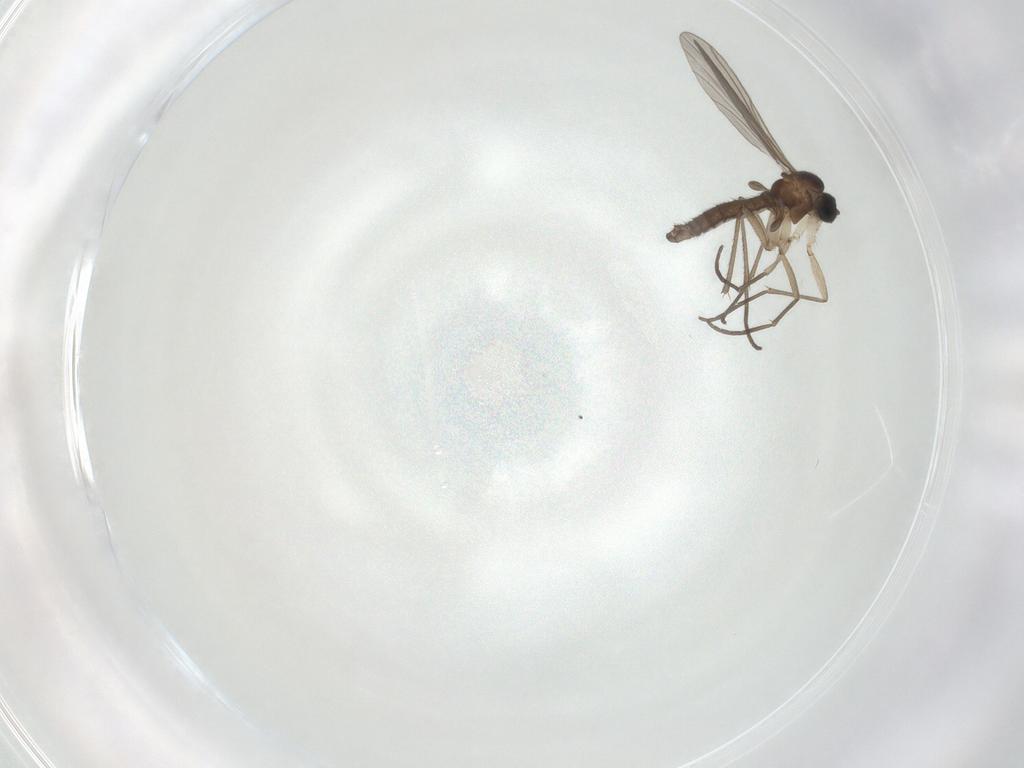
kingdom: Animalia
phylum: Arthropoda
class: Insecta
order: Diptera
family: Sciaridae
